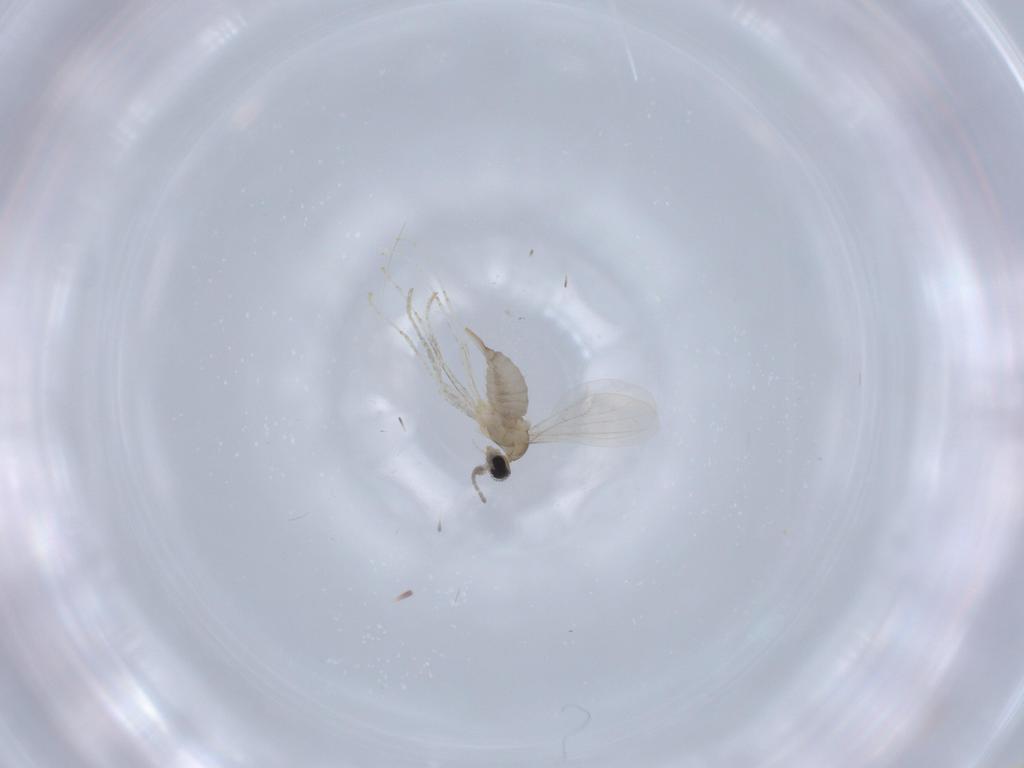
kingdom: Animalia
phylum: Arthropoda
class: Insecta
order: Diptera
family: Cecidomyiidae
